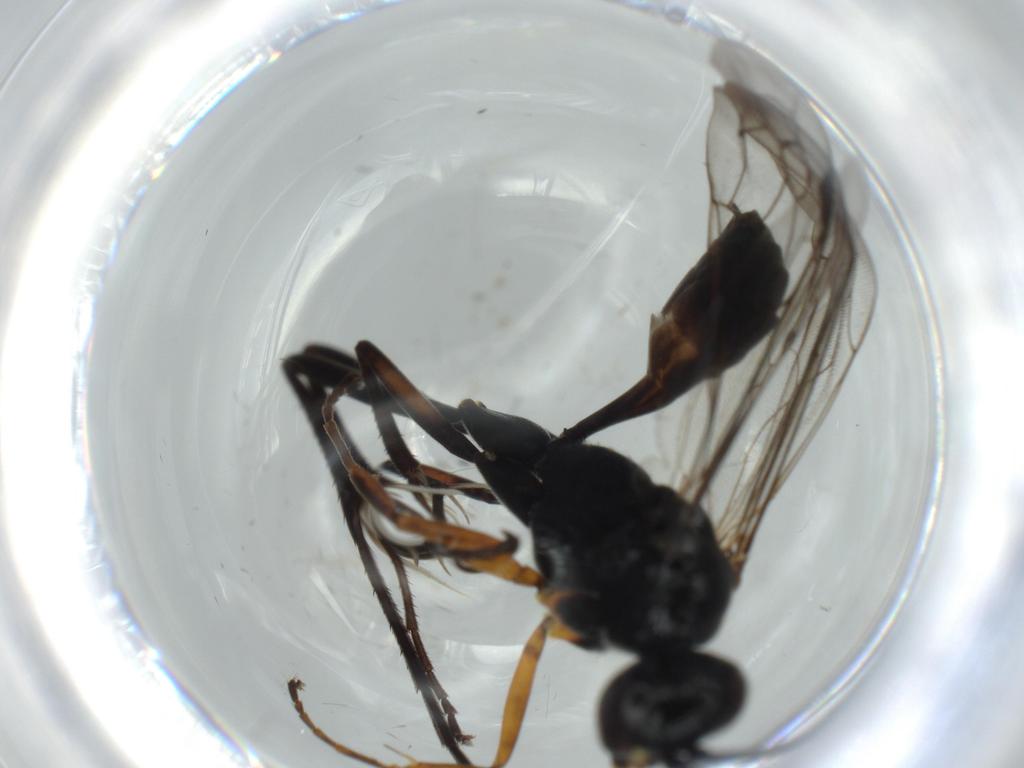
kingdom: Animalia
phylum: Arthropoda
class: Insecta
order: Hymenoptera
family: Pompilidae
